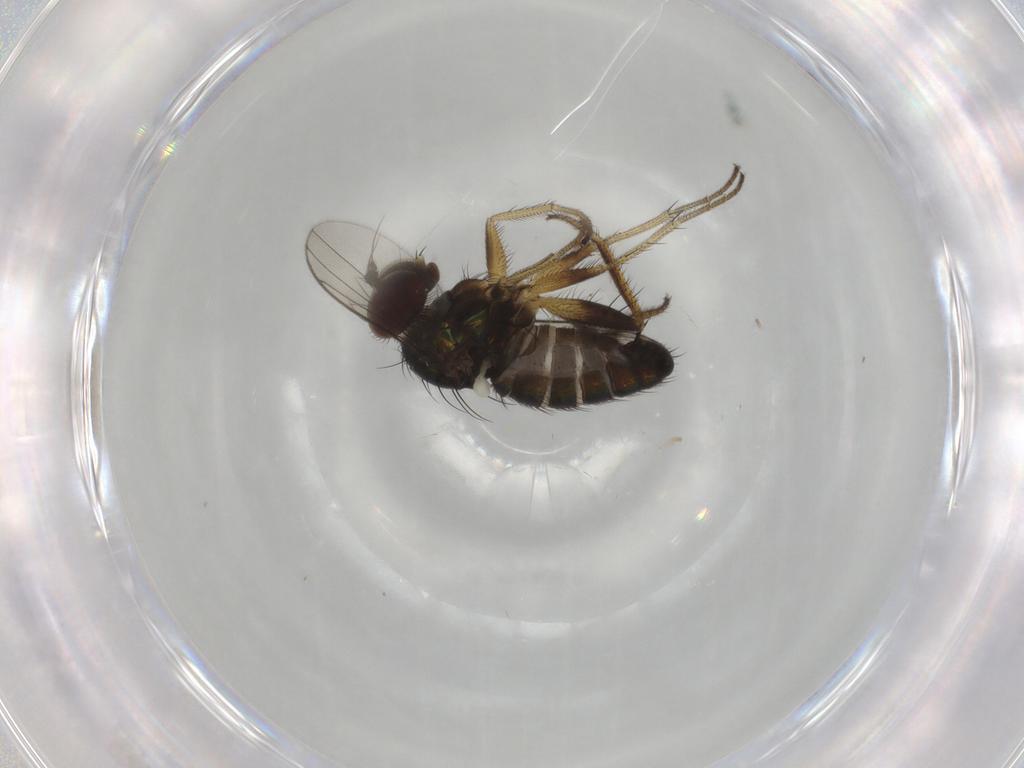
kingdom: Animalia
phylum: Arthropoda
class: Insecta
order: Diptera
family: Dolichopodidae
